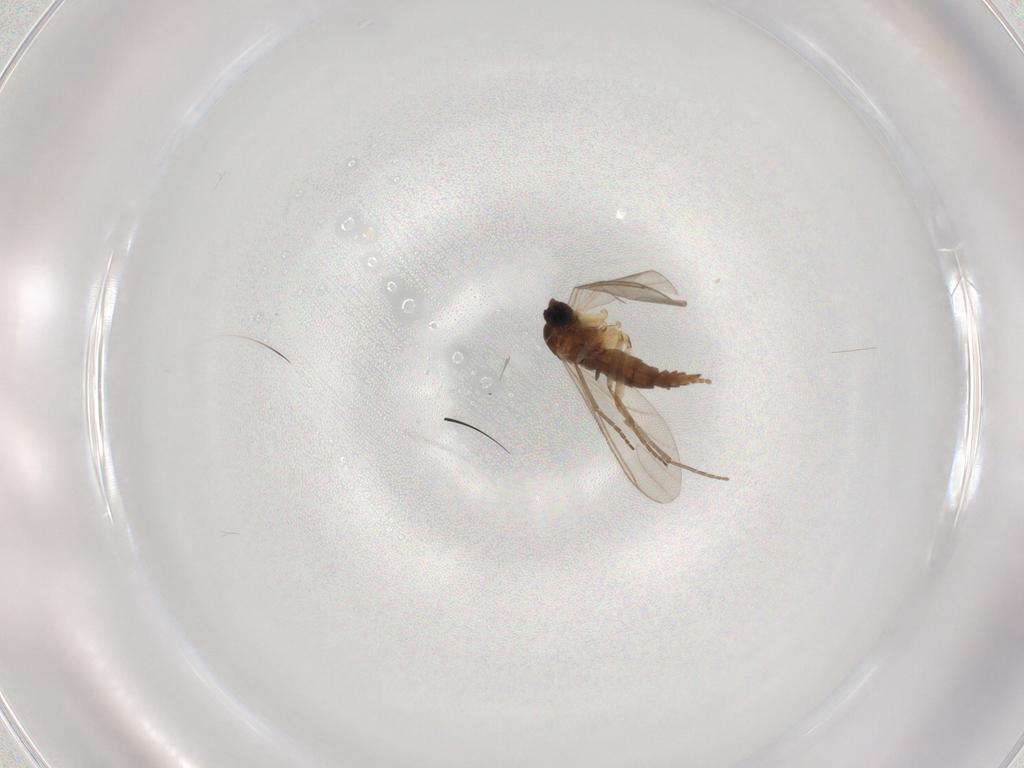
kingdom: Animalia
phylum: Arthropoda
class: Insecta
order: Diptera
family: Sciaridae
